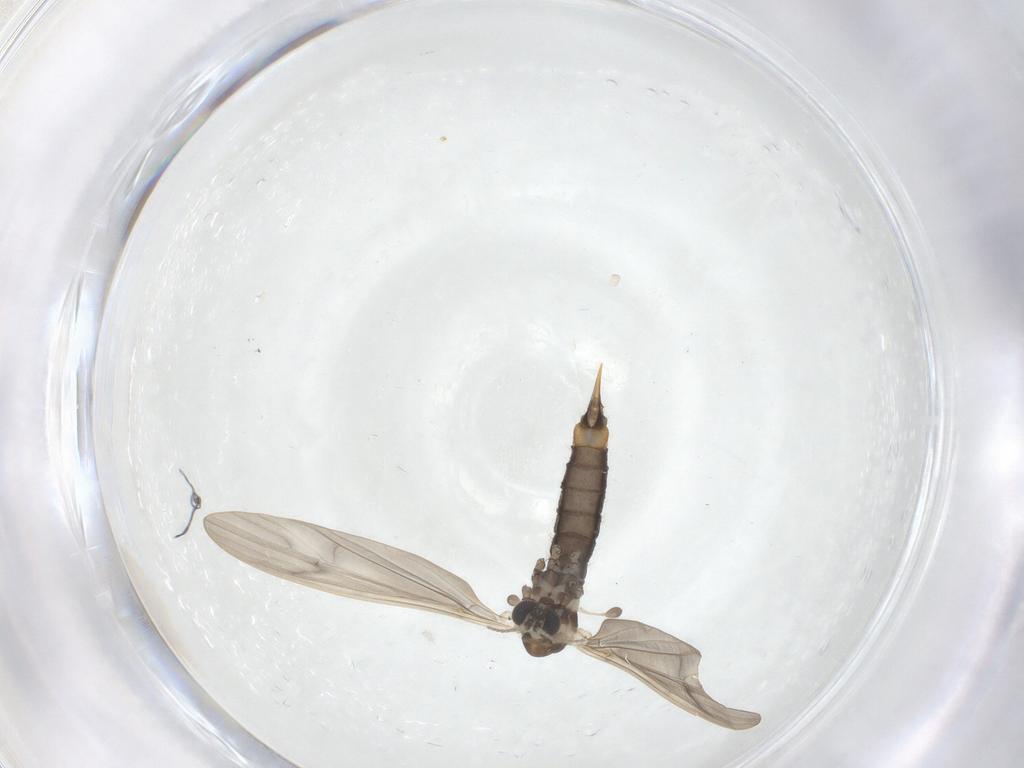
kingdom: Animalia
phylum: Arthropoda
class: Insecta
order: Diptera
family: Limoniidae
